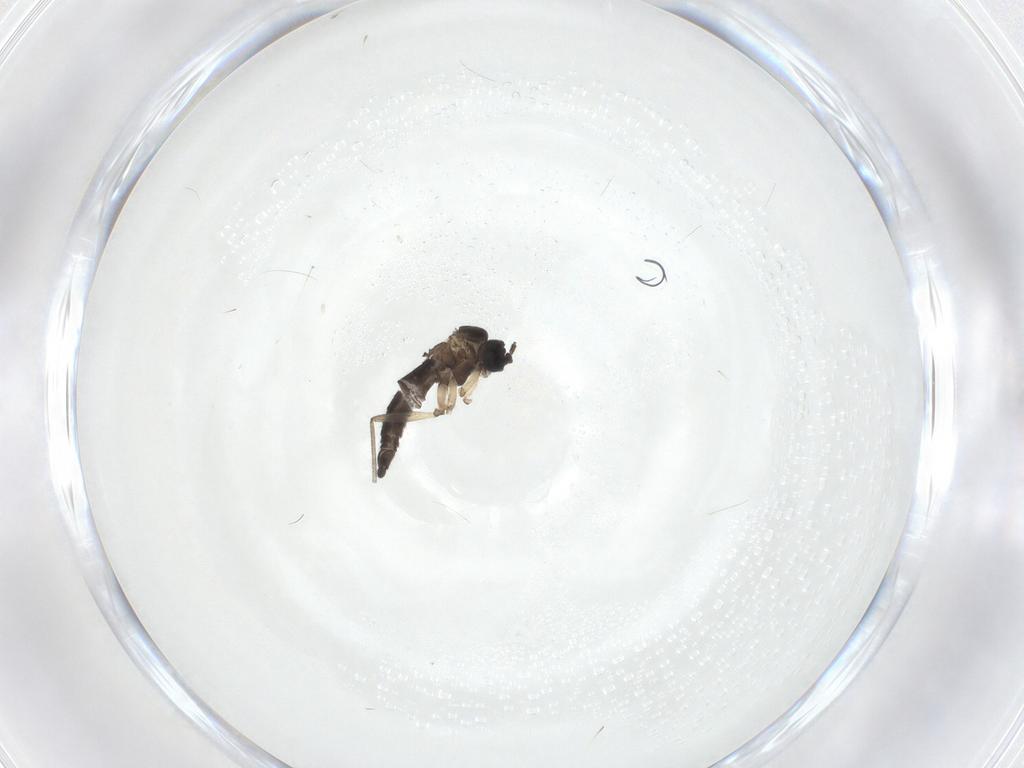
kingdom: Animalia
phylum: Arthropoda
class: Insecta
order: Diptera
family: Sciaridae
